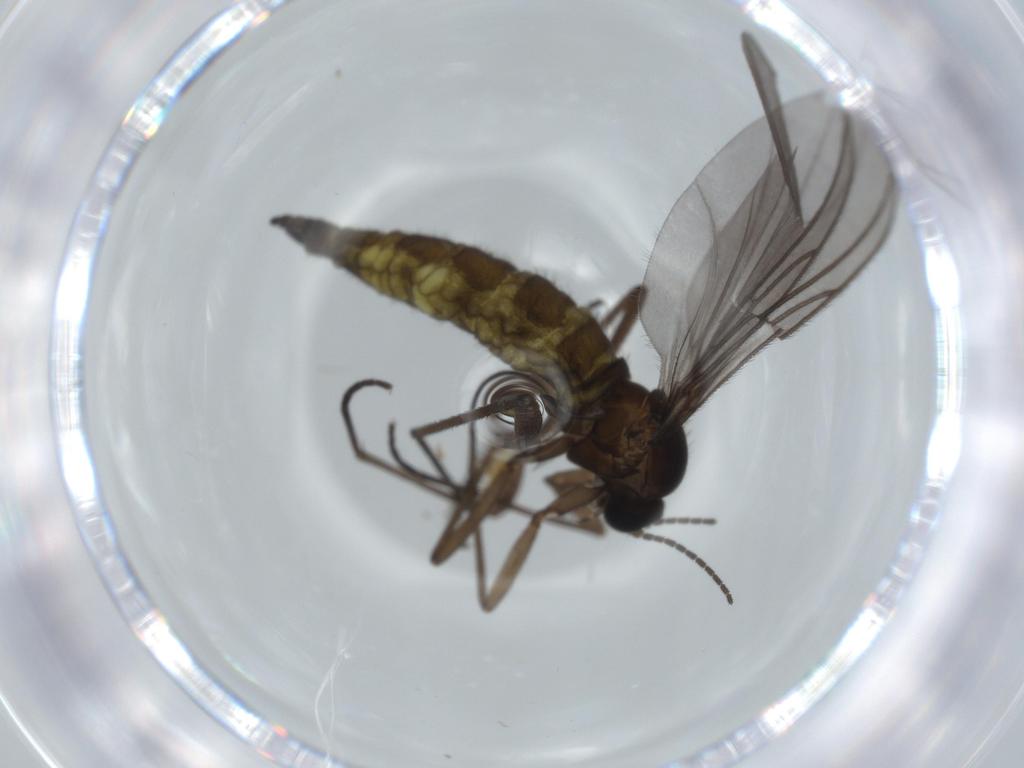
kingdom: Animalia
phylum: Arthropoda
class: Insecta
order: Diptera
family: Sciaridae
